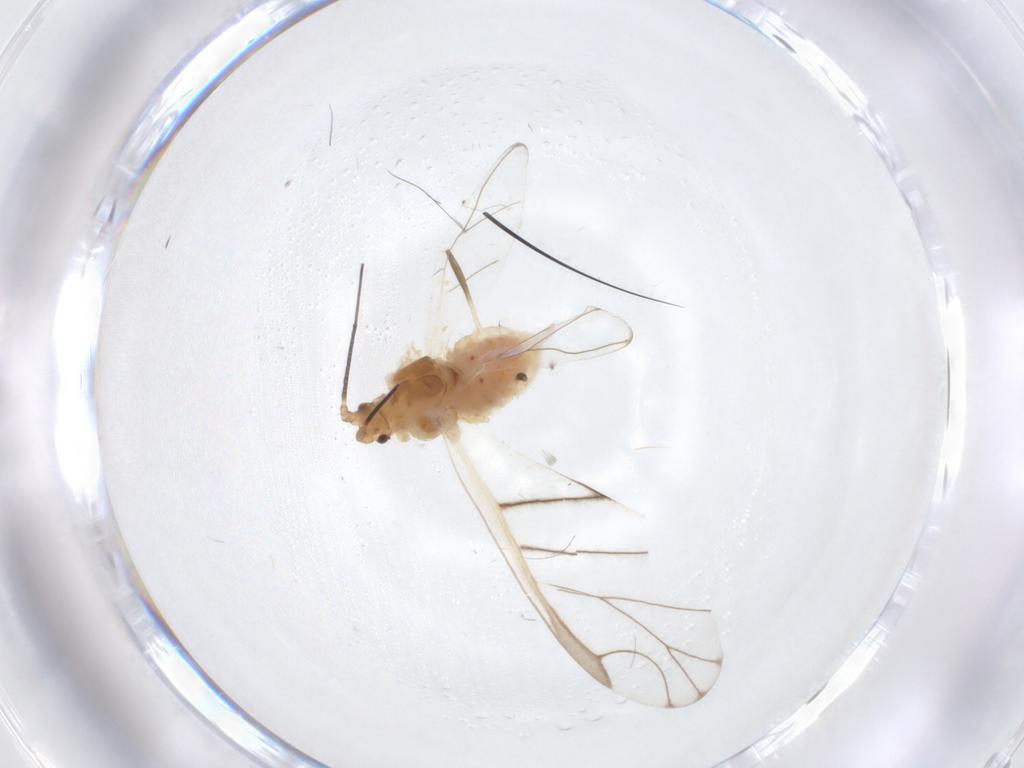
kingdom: Animalia
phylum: Arthropoda
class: Insecta
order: Hemiptera
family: Aphididae
